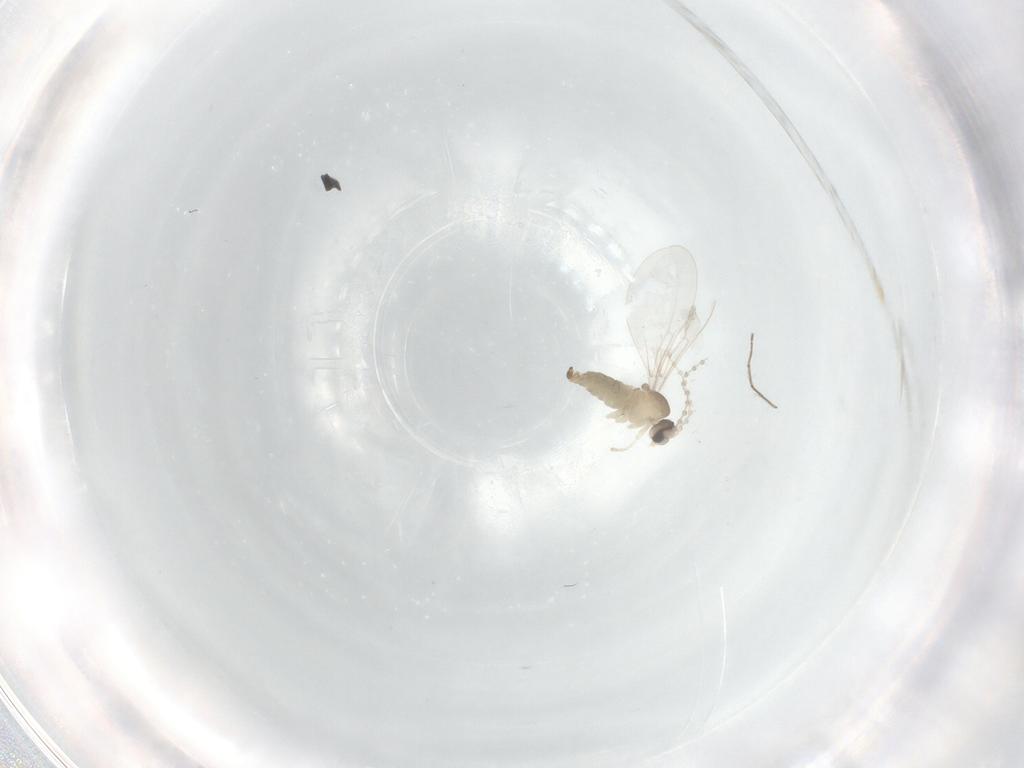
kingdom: Animalia
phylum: Arthropoda
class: Insecta
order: Diptera
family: Cecidomyiidae
